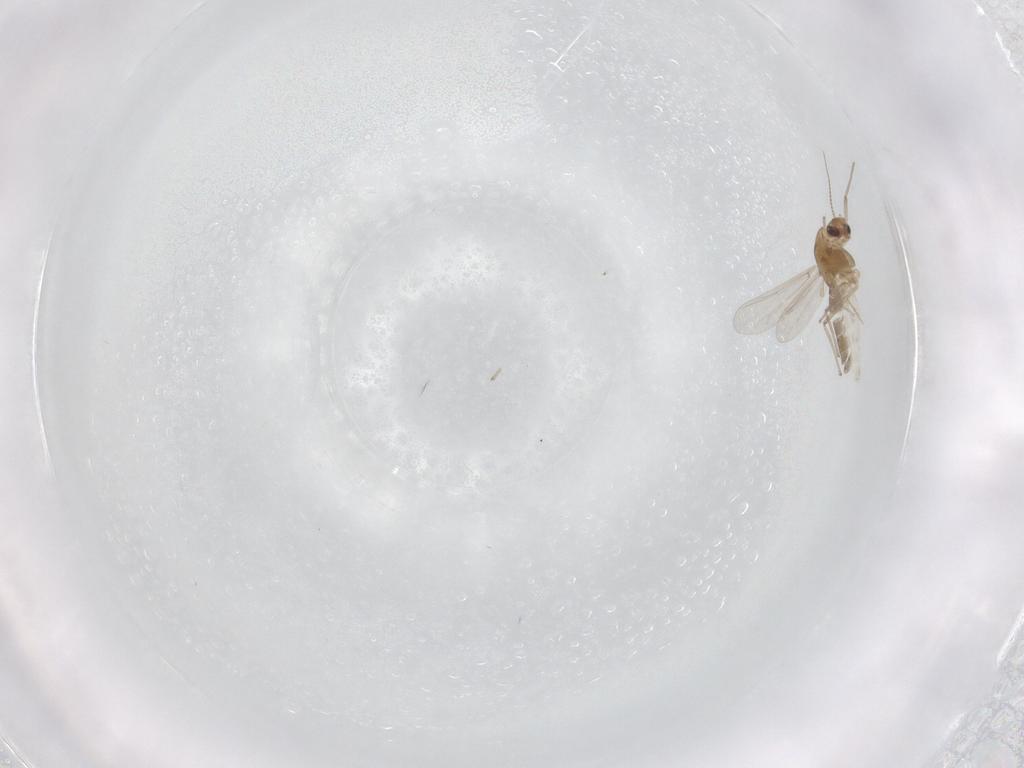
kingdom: Animalia
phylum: Arthropoda
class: Insecta
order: Diptera
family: Chironomidae
